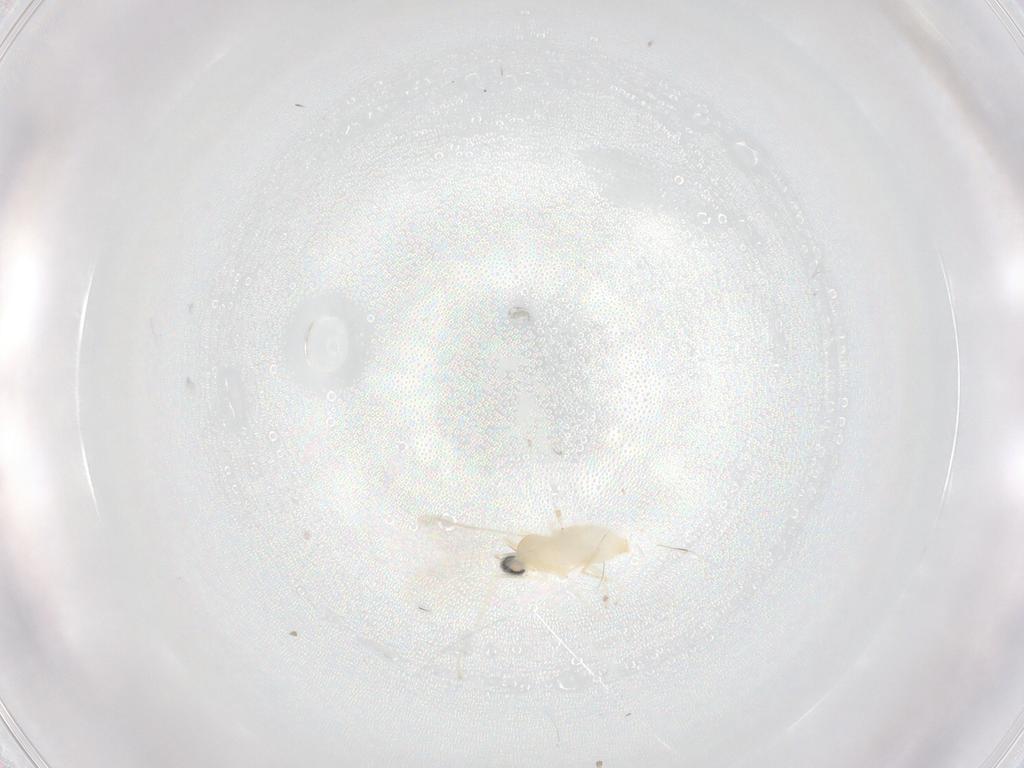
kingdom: Animalia
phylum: Arthropoda
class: Insecta
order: Diptera
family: Cecidomyiidae
